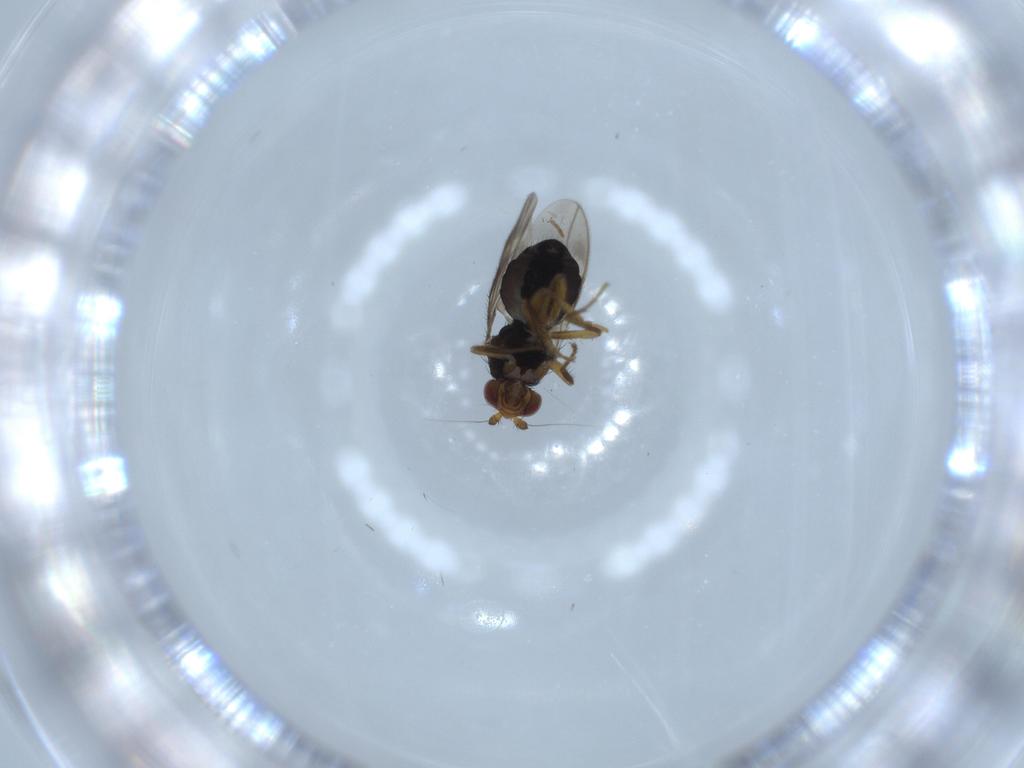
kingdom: Animalia
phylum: Arthropoda
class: Insecta
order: Diptera
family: Sphaeroceridae
